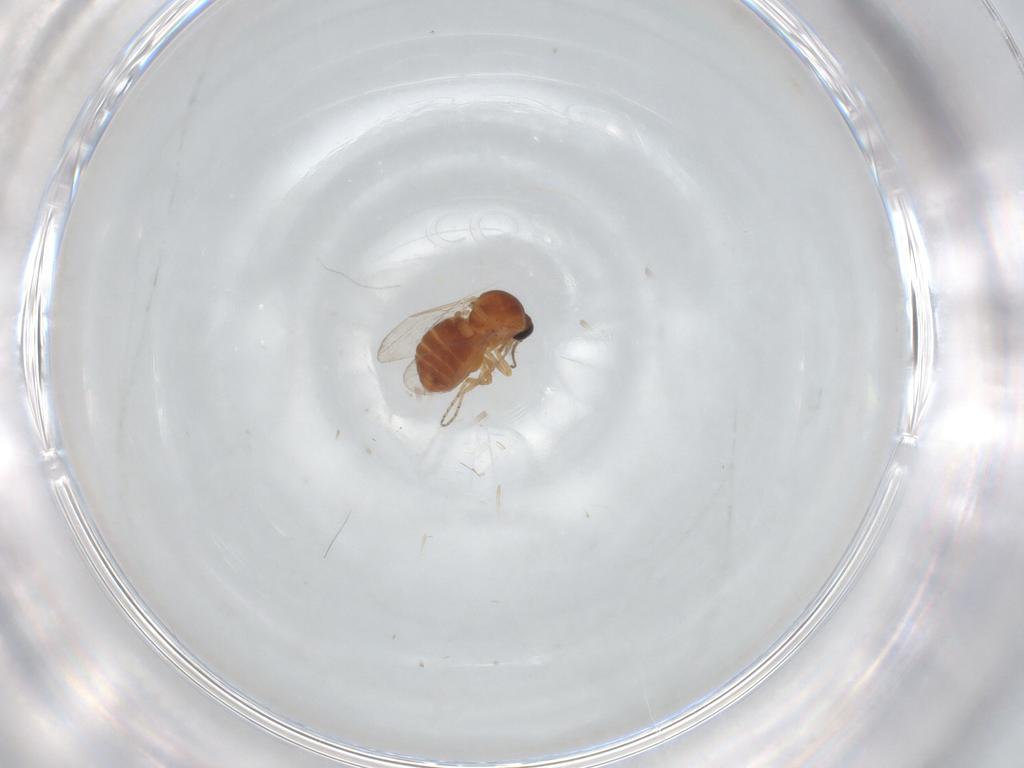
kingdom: Animalia
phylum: Arthropoda
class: Insecta
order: Diptera
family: Ceratopogonidae
